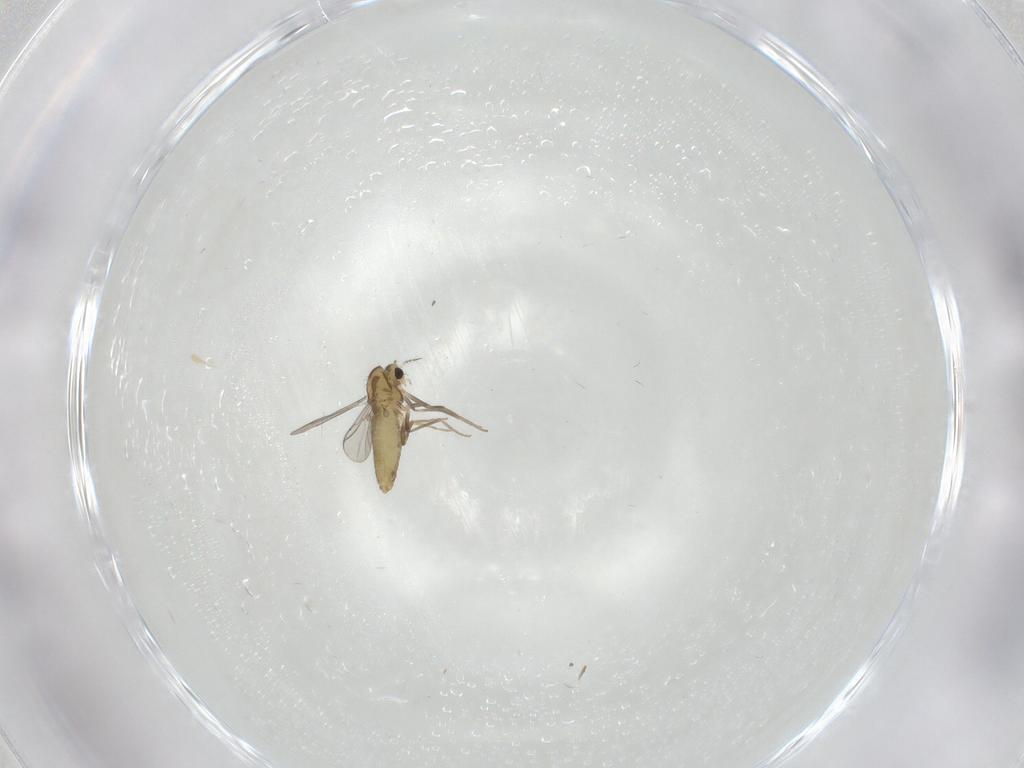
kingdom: Animalia
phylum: Arthropoda
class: Insecta
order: Diptera
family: Chironomidae
